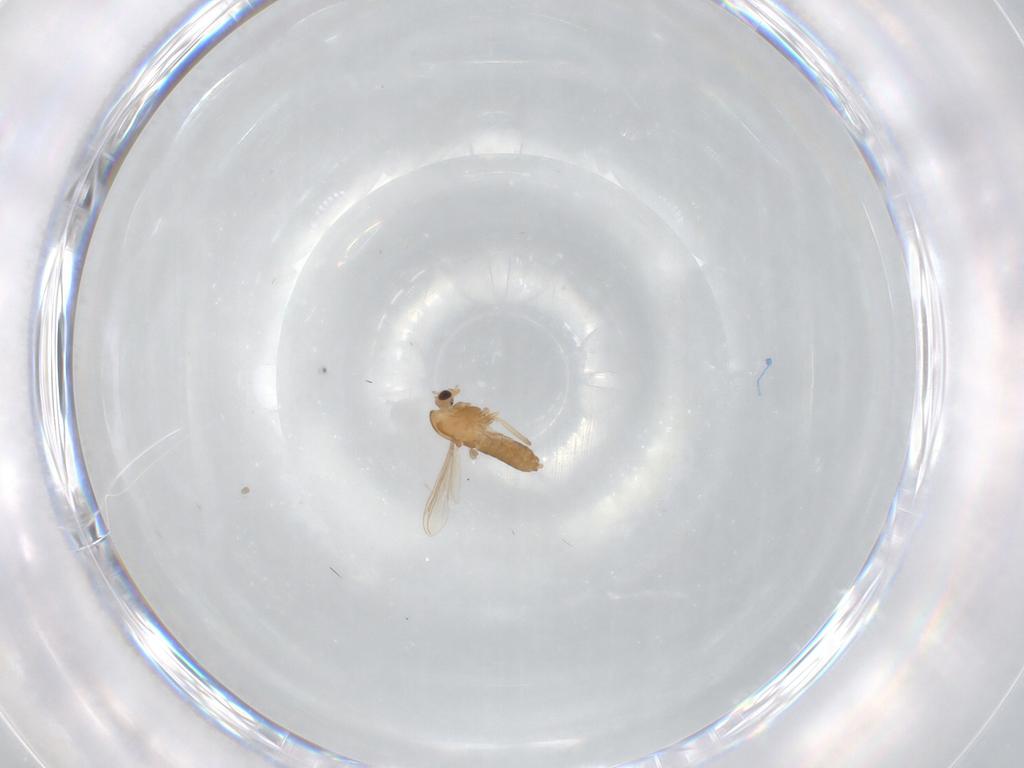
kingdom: Animalia
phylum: Arthropoda
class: Insecta
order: Diptera
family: Chironomidae
